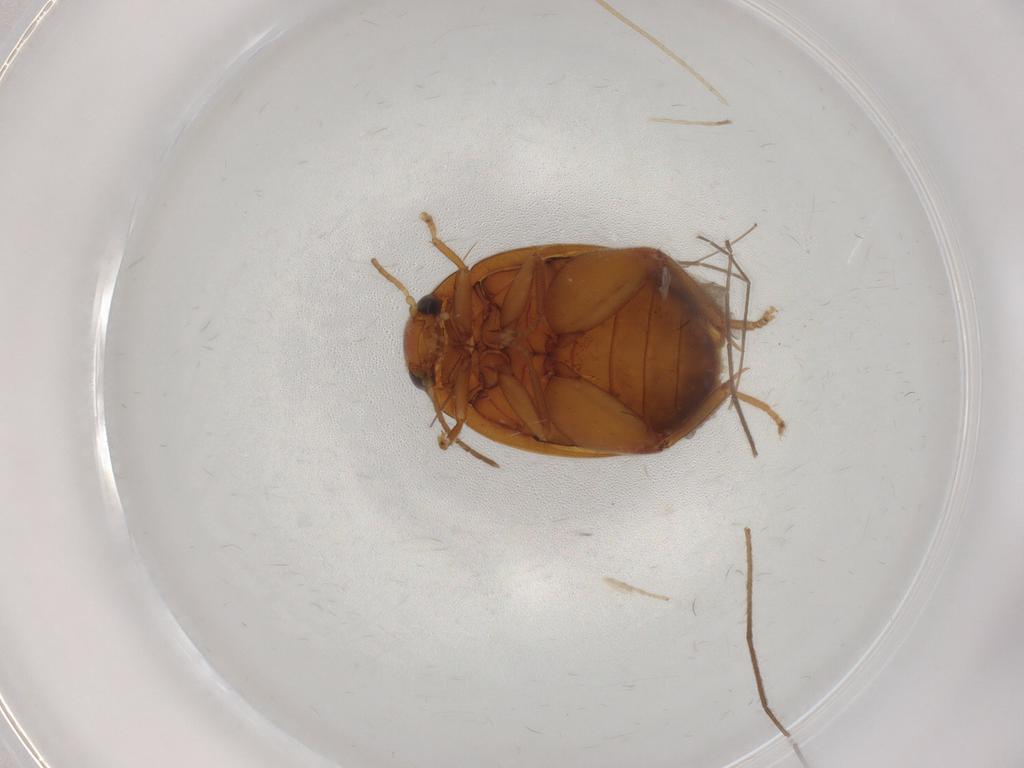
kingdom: Animalia
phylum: Arthropoda
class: Insecta
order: Coleoptera
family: Scirtidae
